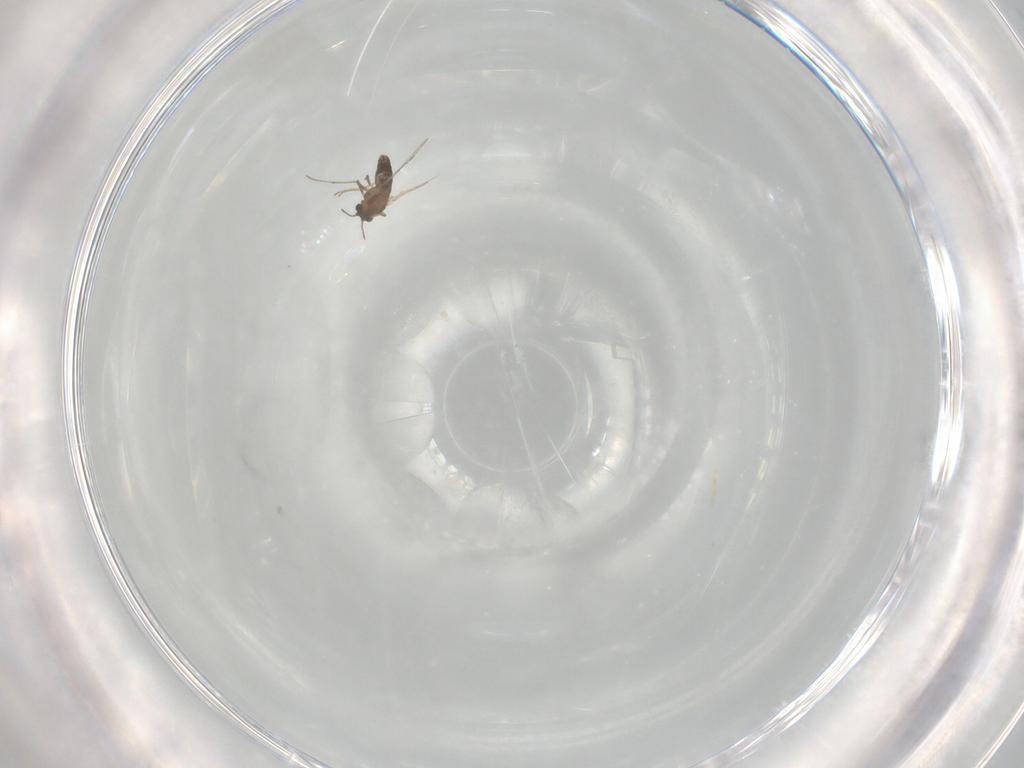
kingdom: Animalia
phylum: Arthropoda
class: Insecta
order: Diptera
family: Chironomidae
